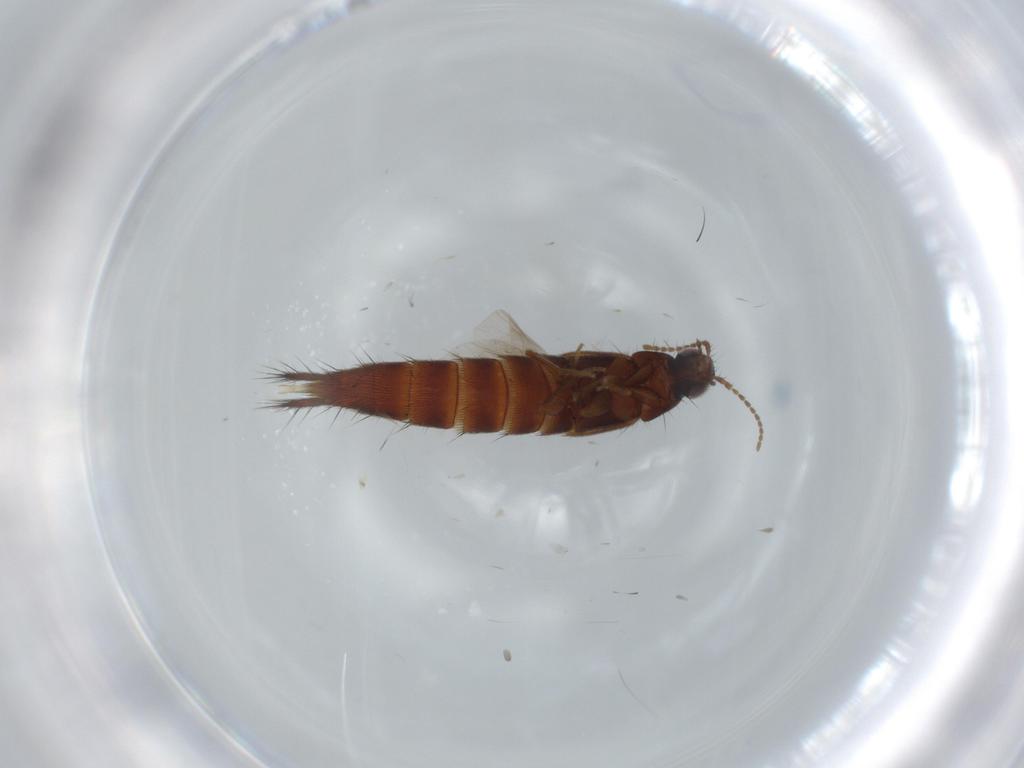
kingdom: Animalia
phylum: Arthropoda
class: Insecta
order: Coleoptera
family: Chrysomelidae
